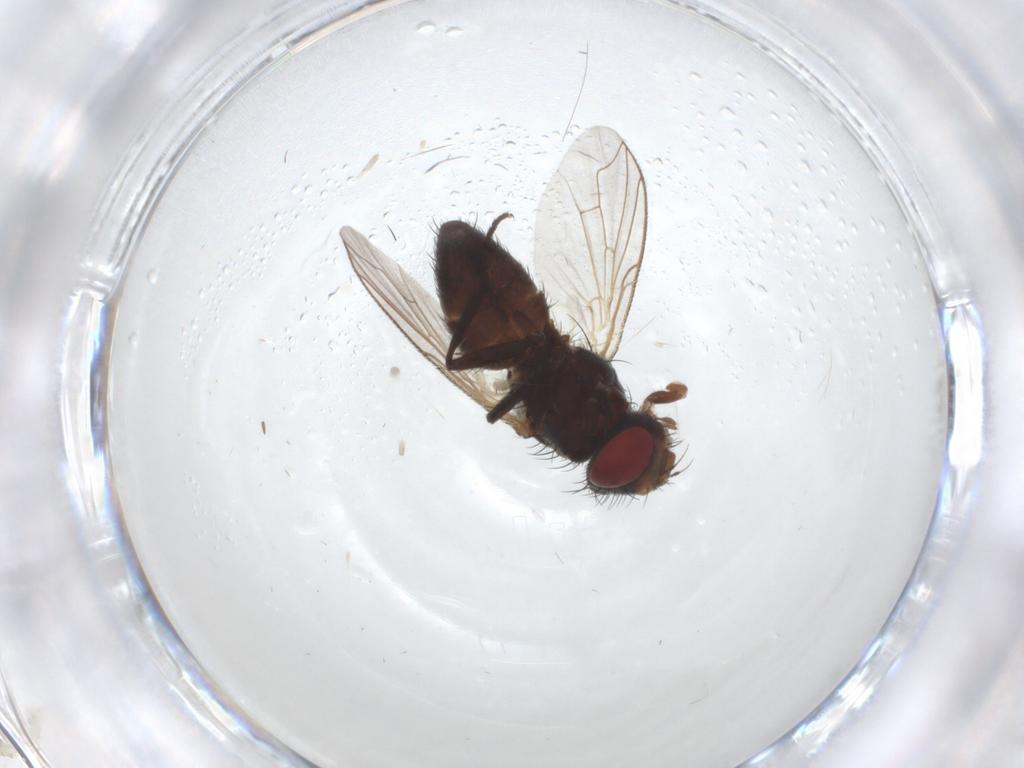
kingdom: Animalia
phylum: Arthropoda
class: Insecta
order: Diptera
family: Sarcophagidae
